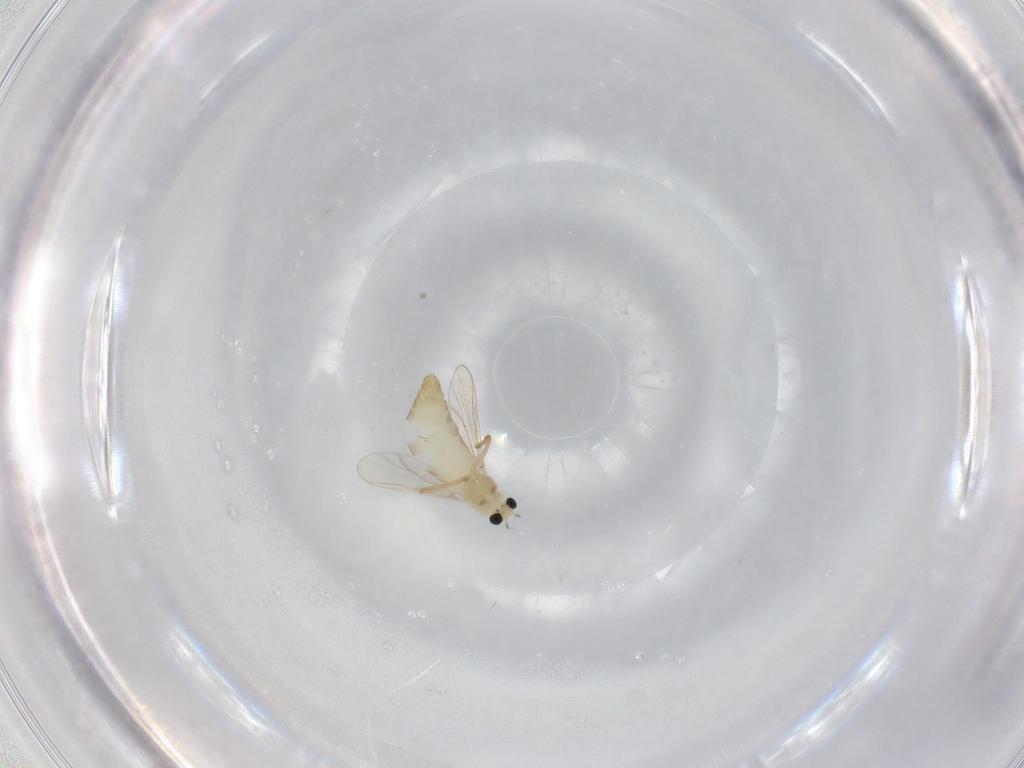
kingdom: Animalia
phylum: Arthropoda
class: Insecta
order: Diptera
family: Chironomidae
